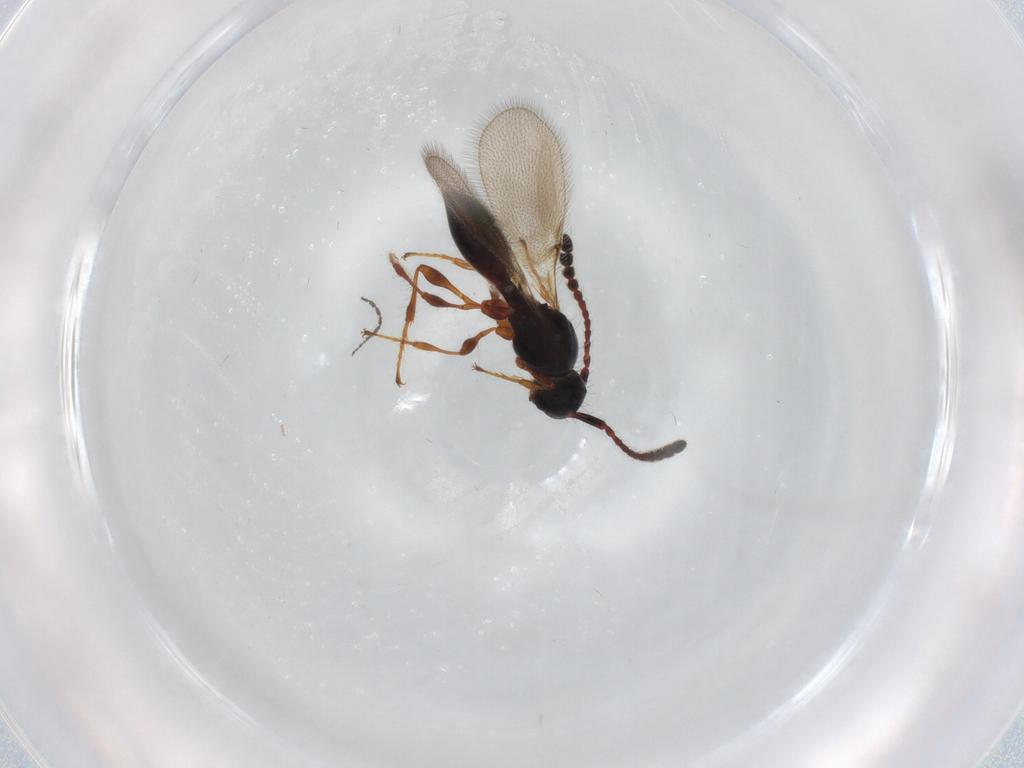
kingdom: Animalia
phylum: Arthropoda
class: Insecta
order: Hymenoptera
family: Diapriidae
